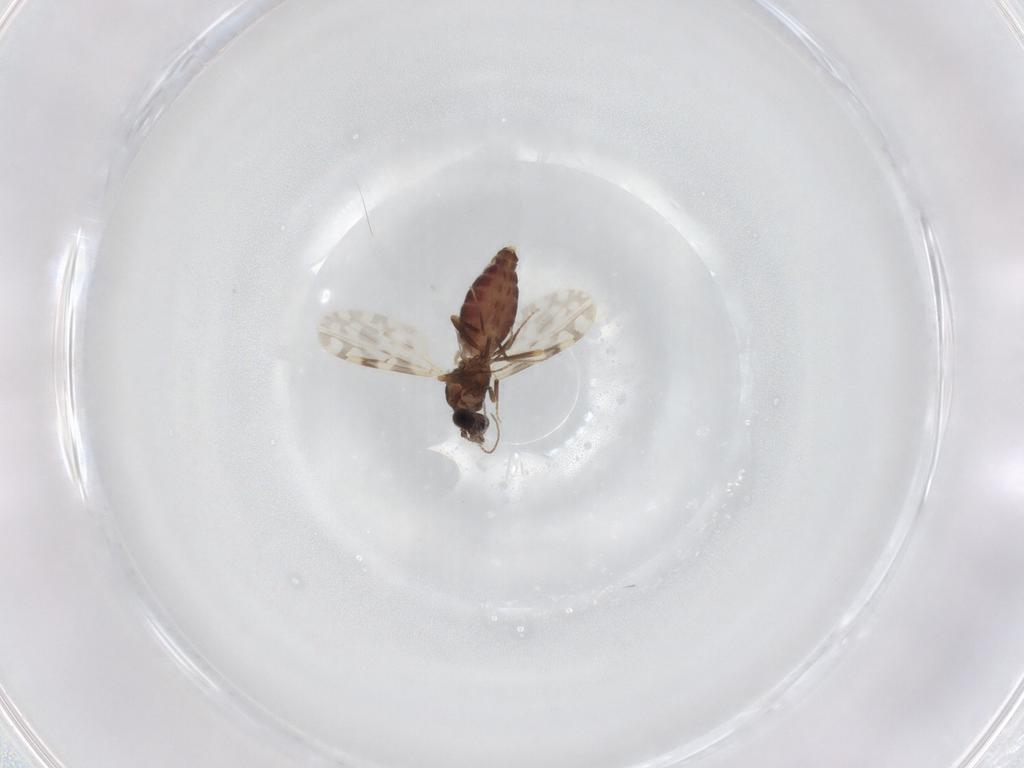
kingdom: Animalia
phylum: Arthropoda
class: Insecta
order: Diptera
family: Ceratopogonidae
